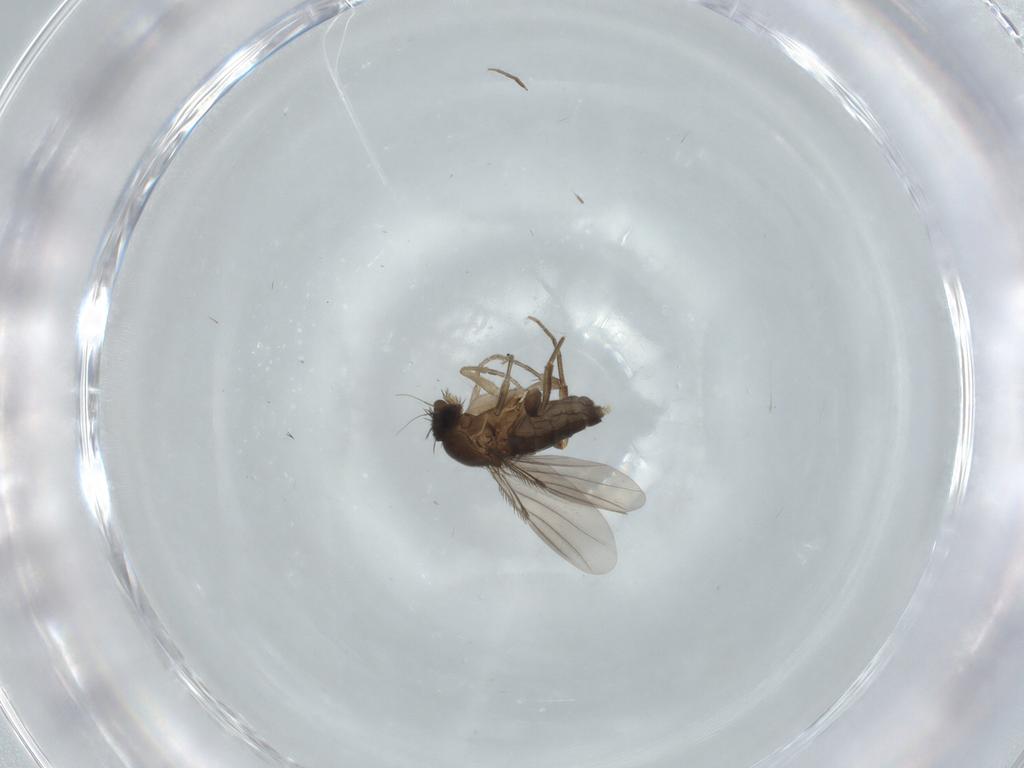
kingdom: Animalia
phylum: Arthropoda
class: Insecta
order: Diptera
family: Phoridae
